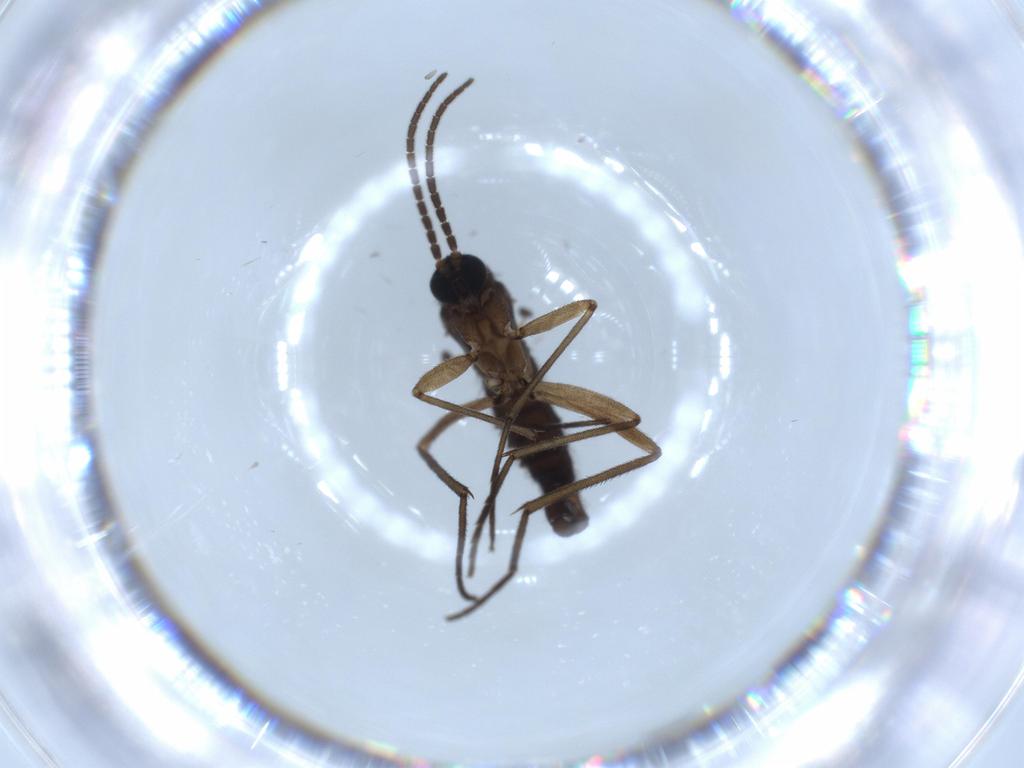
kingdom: Animalia
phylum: Arthropoda
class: Insecta
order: Diptera
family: Sciaridae
